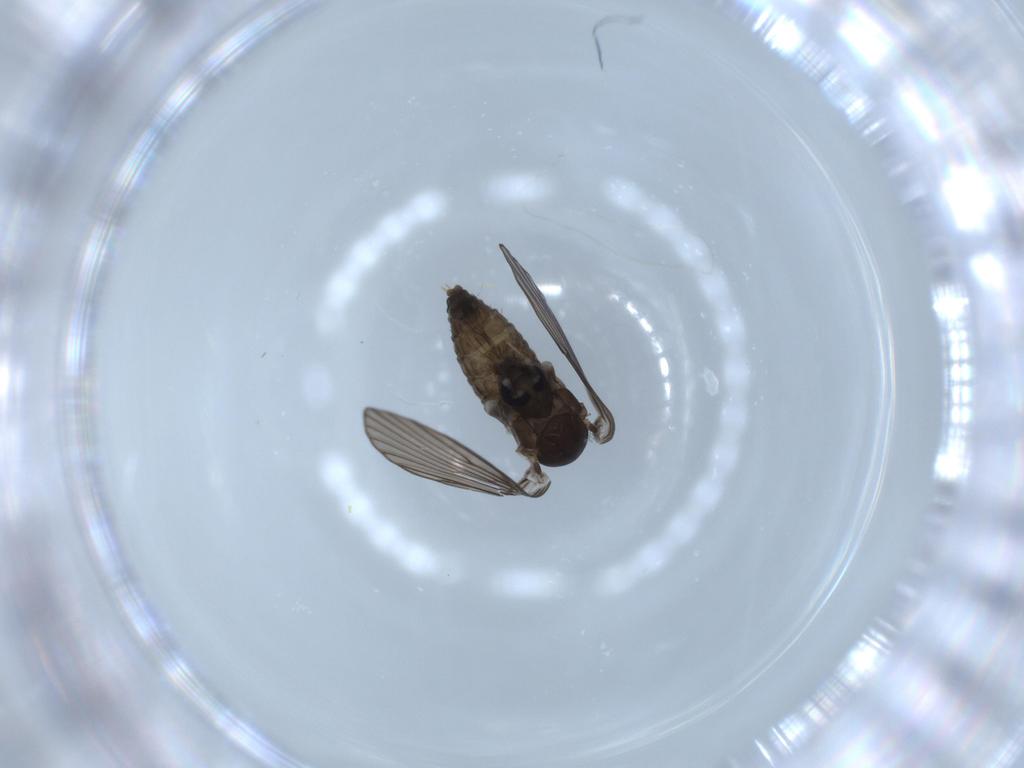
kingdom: Animalia
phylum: Arthropoda
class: Insecta
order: Diptera
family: Psychodidae
